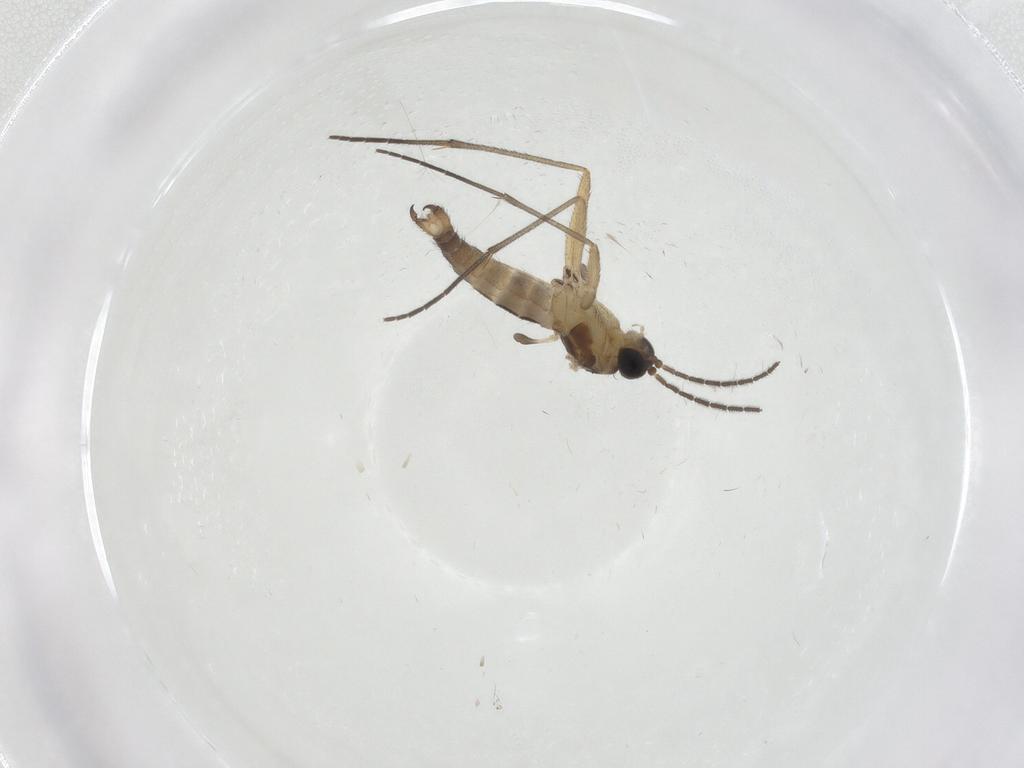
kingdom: Animalia
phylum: Arthropoda
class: Insecta
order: Diptera
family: Sciaridae
